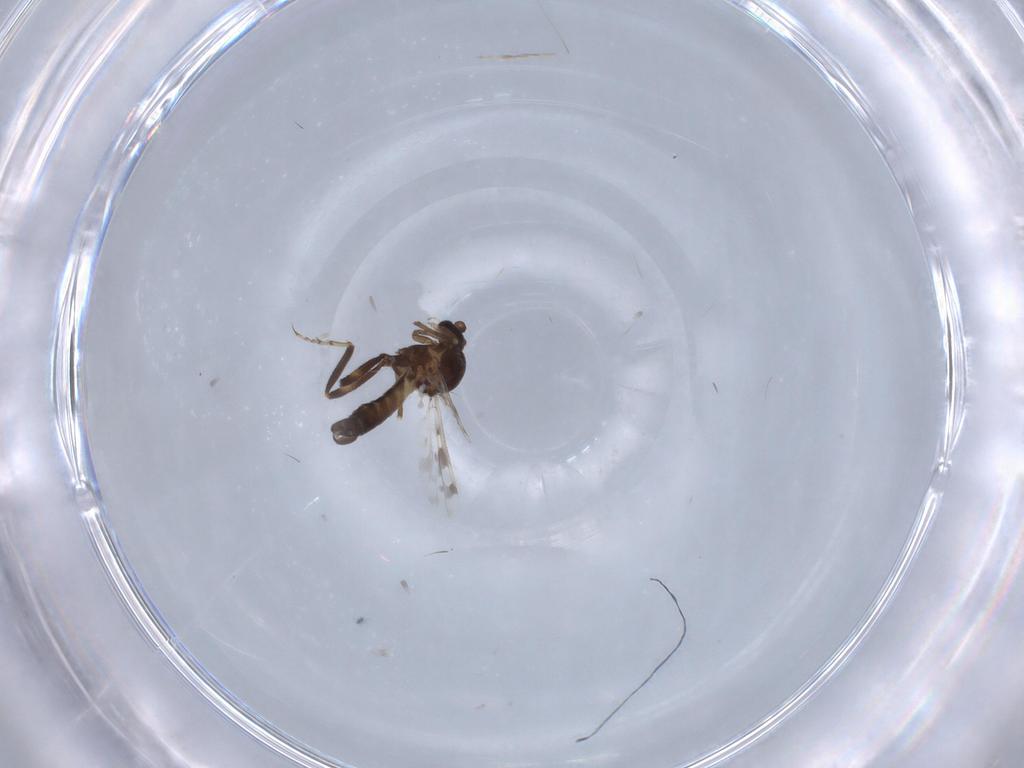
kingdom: Animalia
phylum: Arthropoda
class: Insecta
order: Diptera
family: Ceratopogonidae
